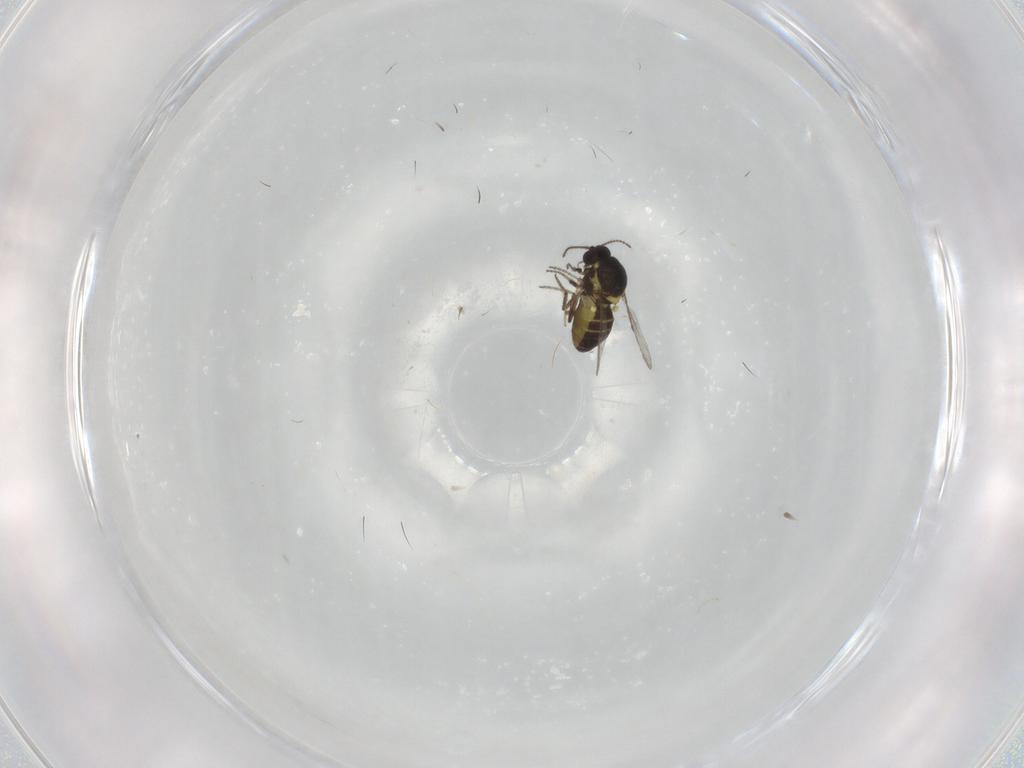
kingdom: Animalia
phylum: Arthropoda
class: Insecta
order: Diptera
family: Ceratopogonidae
